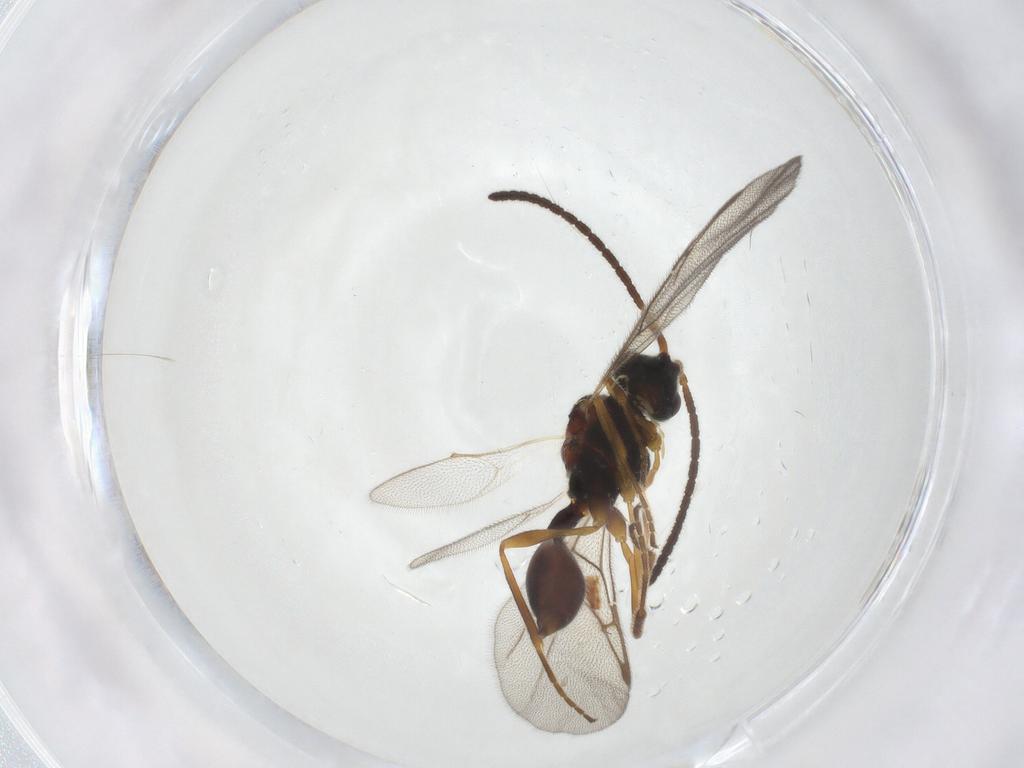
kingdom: Animalia
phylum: Arthropoda
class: Insecta
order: Hymenoptera
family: Diapriidae
